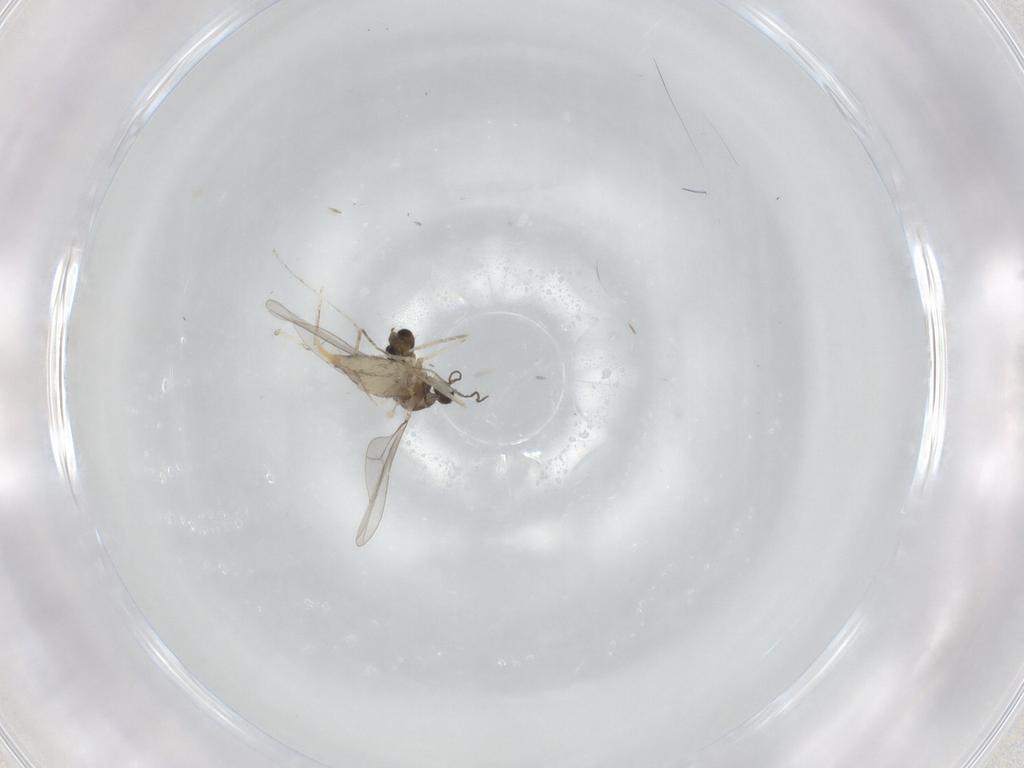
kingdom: Animalia
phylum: Arthropoda
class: Insecta
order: Diptera
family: Cecidomyiidae
